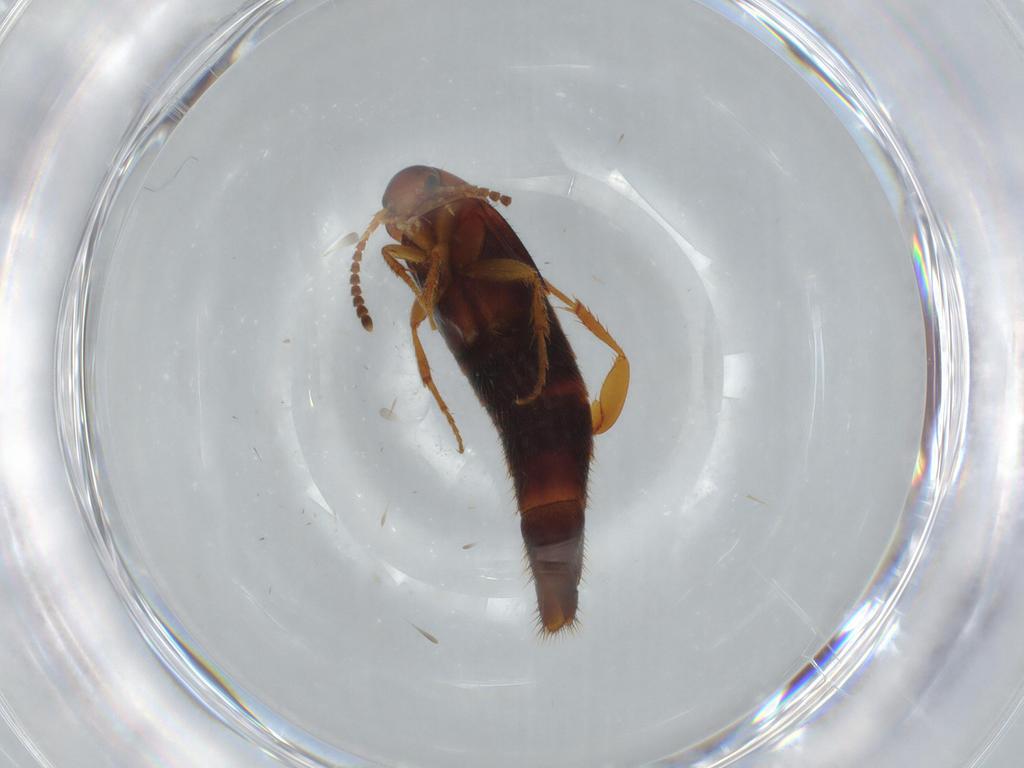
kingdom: Animalia
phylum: Arthropoda
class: Insecta
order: Coleoptera
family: Staphylinidae
